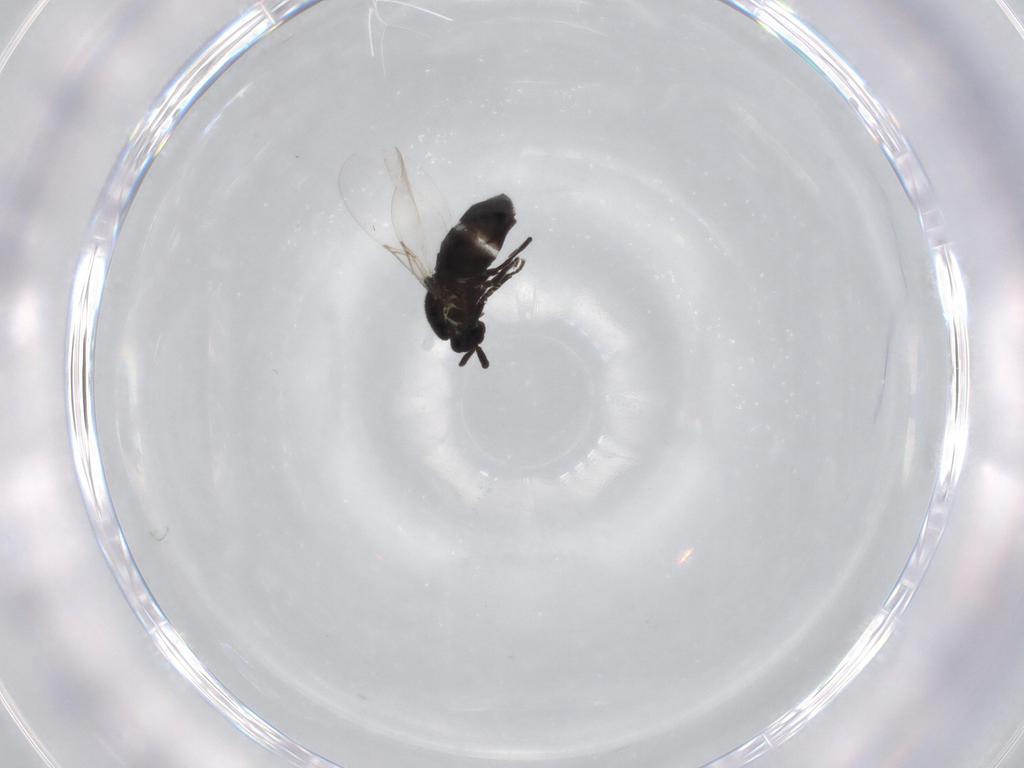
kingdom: Animalia
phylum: Arthropoda
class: Insecta
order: Diptera
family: Scatopsidae
